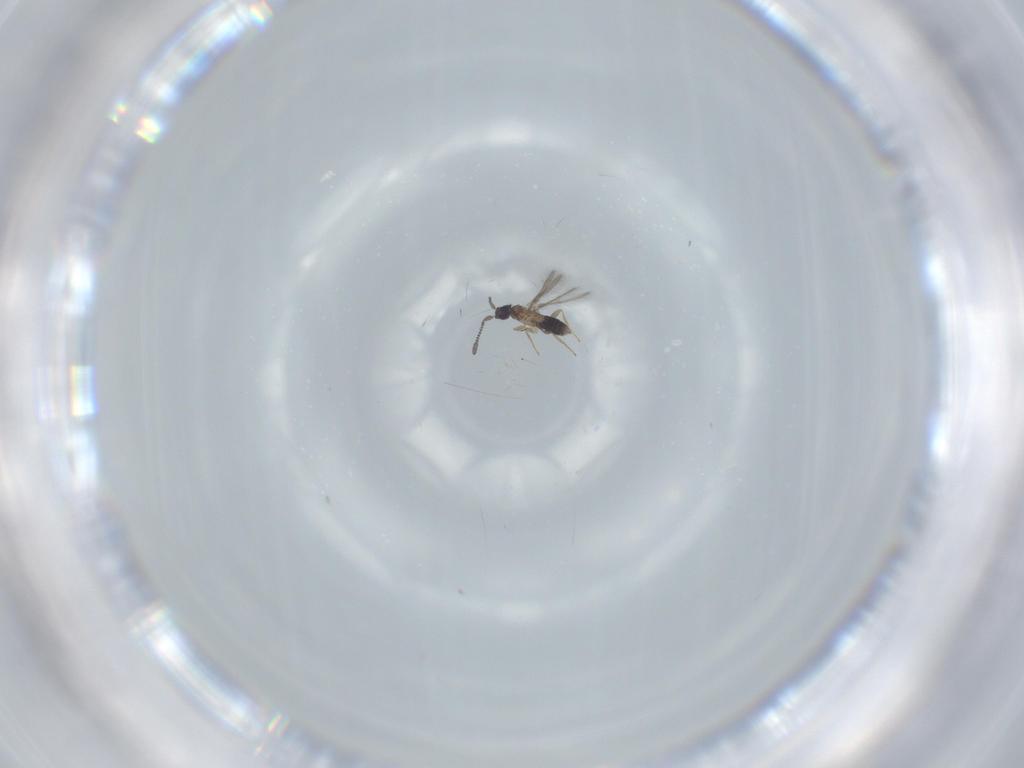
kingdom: Animalia
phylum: Arthropoda
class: Insecta
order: Hymenoptera
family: Mymaridae
